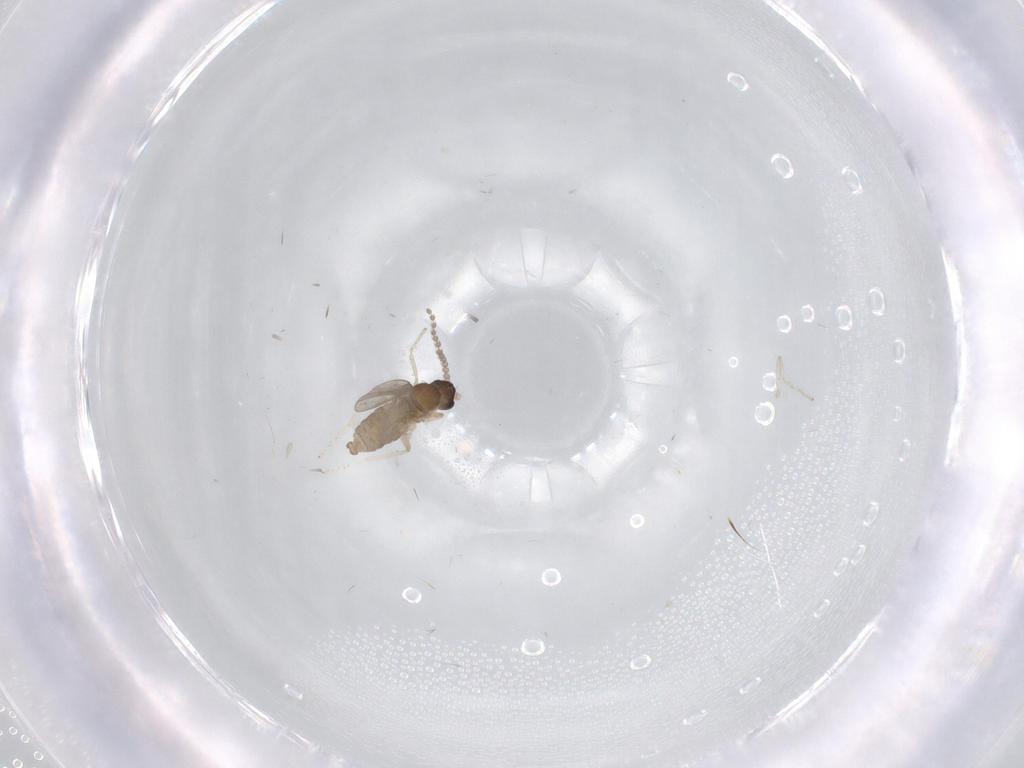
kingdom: Animalia
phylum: Arthropoda
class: Insecta
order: Diptera
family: Cecidomyiidae
